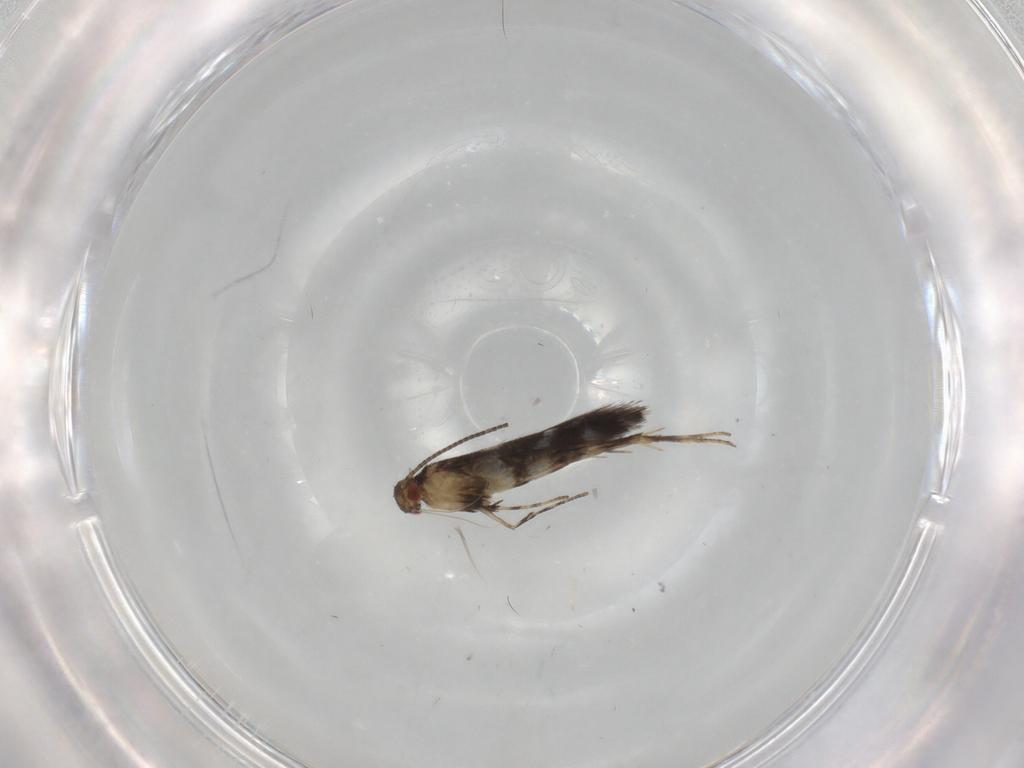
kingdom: Animalia
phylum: Arthropoda
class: Insecta
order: Lepidoptera
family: Gracillariidae
